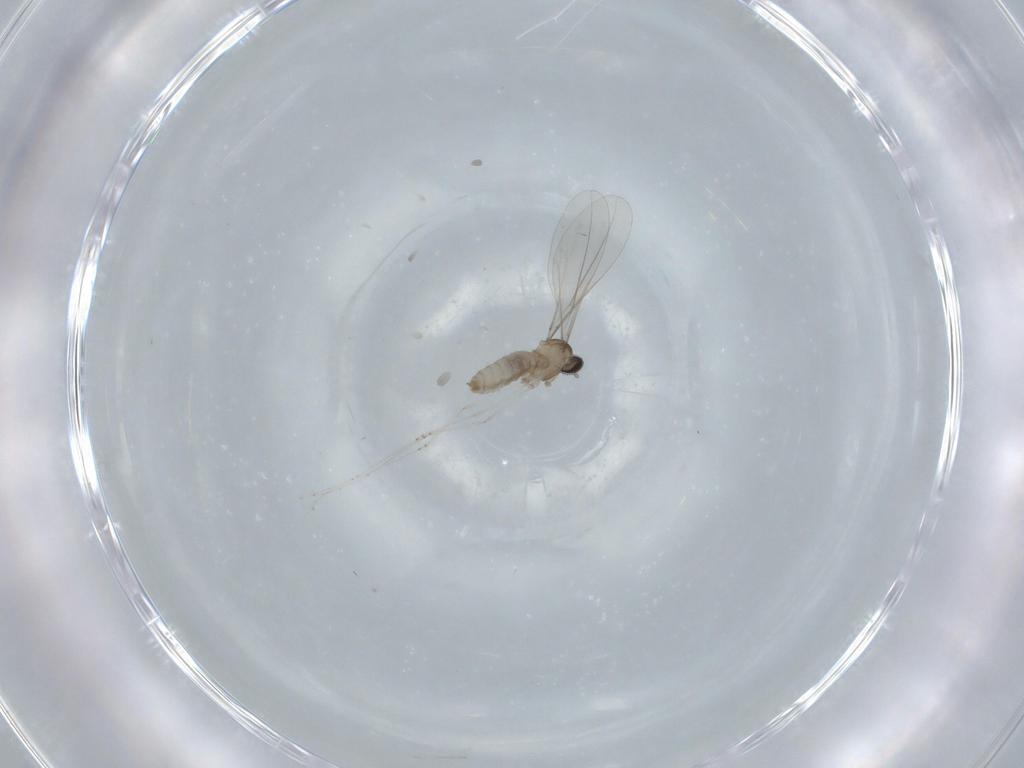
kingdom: Animalia
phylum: Arthropoda
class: Insecta
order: Diptera
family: Cecidomyiidae
